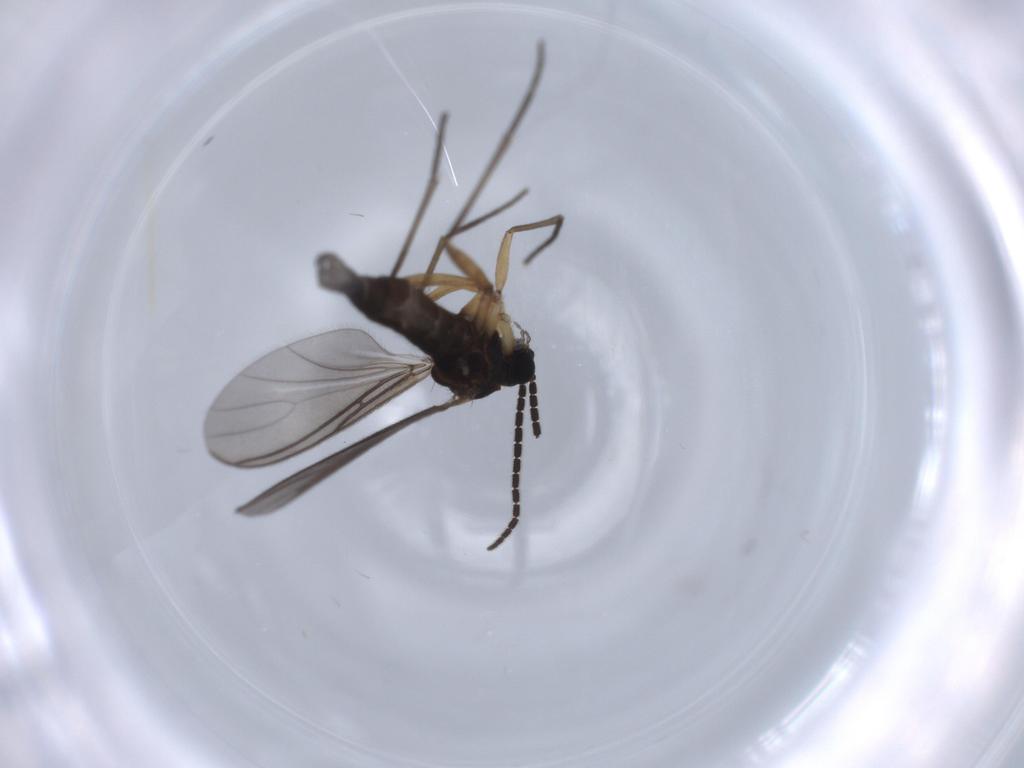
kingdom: Animalia
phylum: Arthropoda
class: Insecta
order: Diptera
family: Sciaridae
